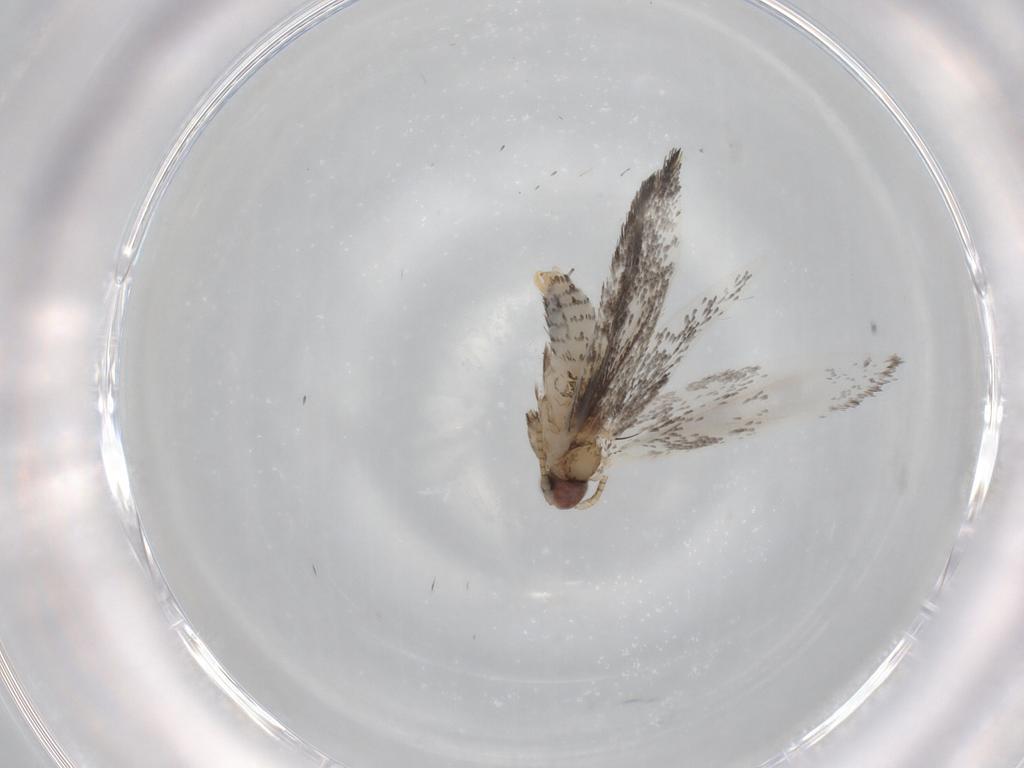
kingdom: Animalia
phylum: Arthropoda
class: Insecta
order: Lepidoptera
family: Tineidae
